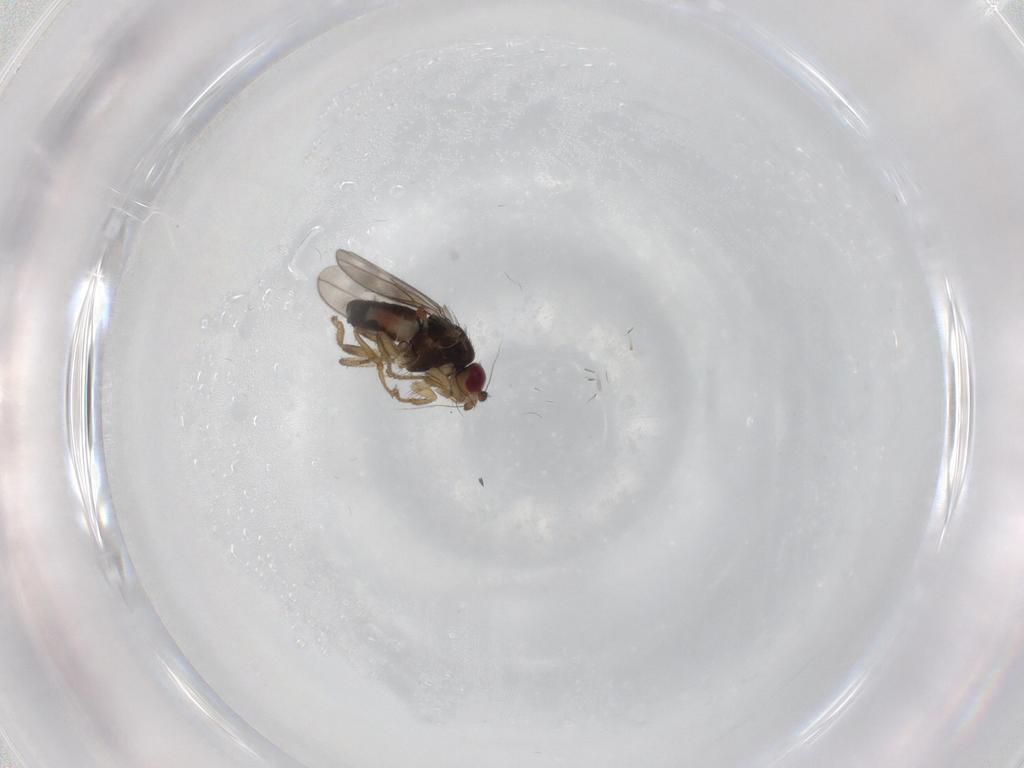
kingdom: Animalia
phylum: Arthropoda
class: Insecta
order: Diptera
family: Sphaeroceridae
